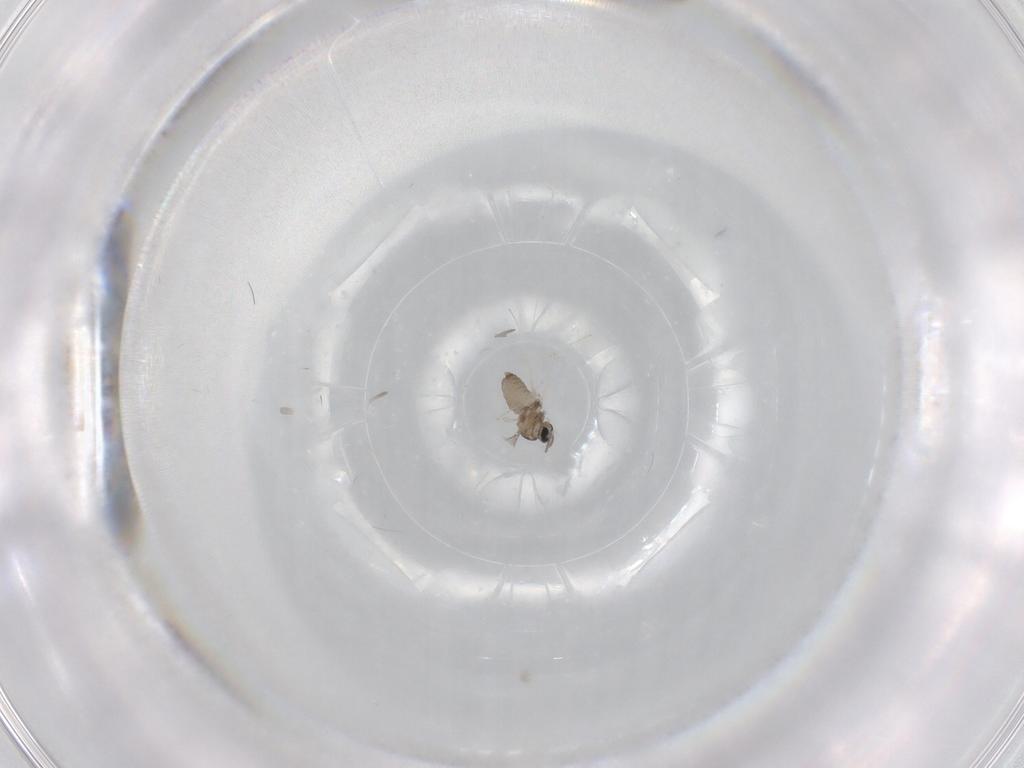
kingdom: Animalia
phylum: Arthropoda
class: Insecta
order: Diptera
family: Cecidomyiidae
